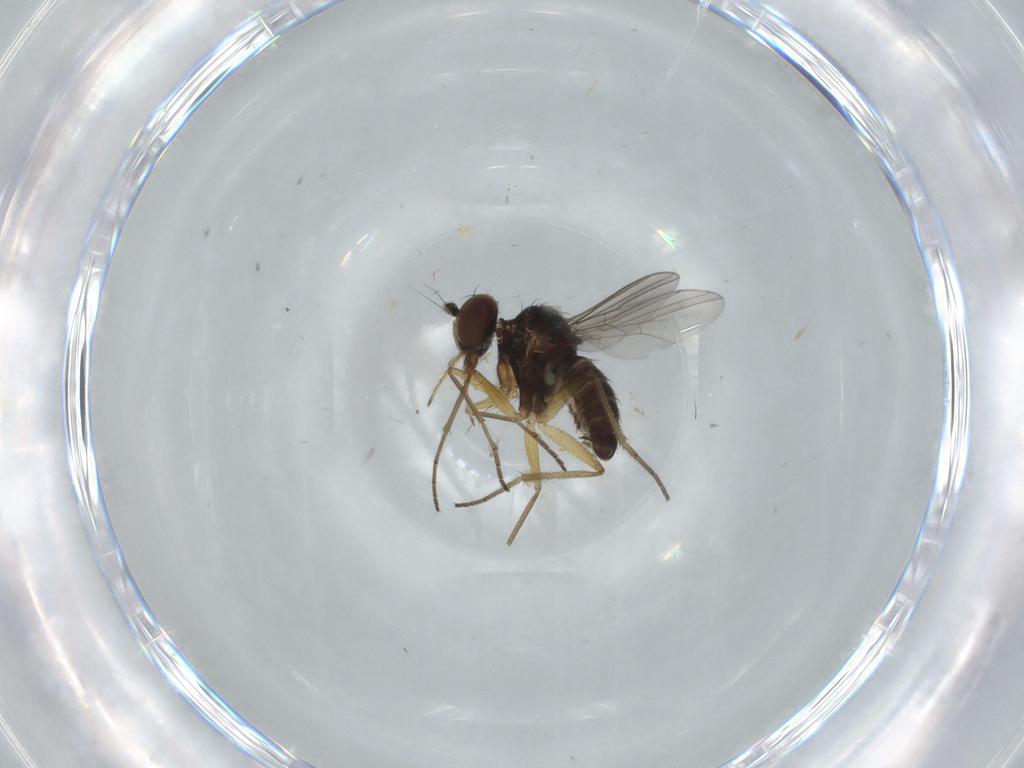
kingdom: Animalia
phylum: Arthropoda
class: Insecta
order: Diptera
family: Dolichopodidae
